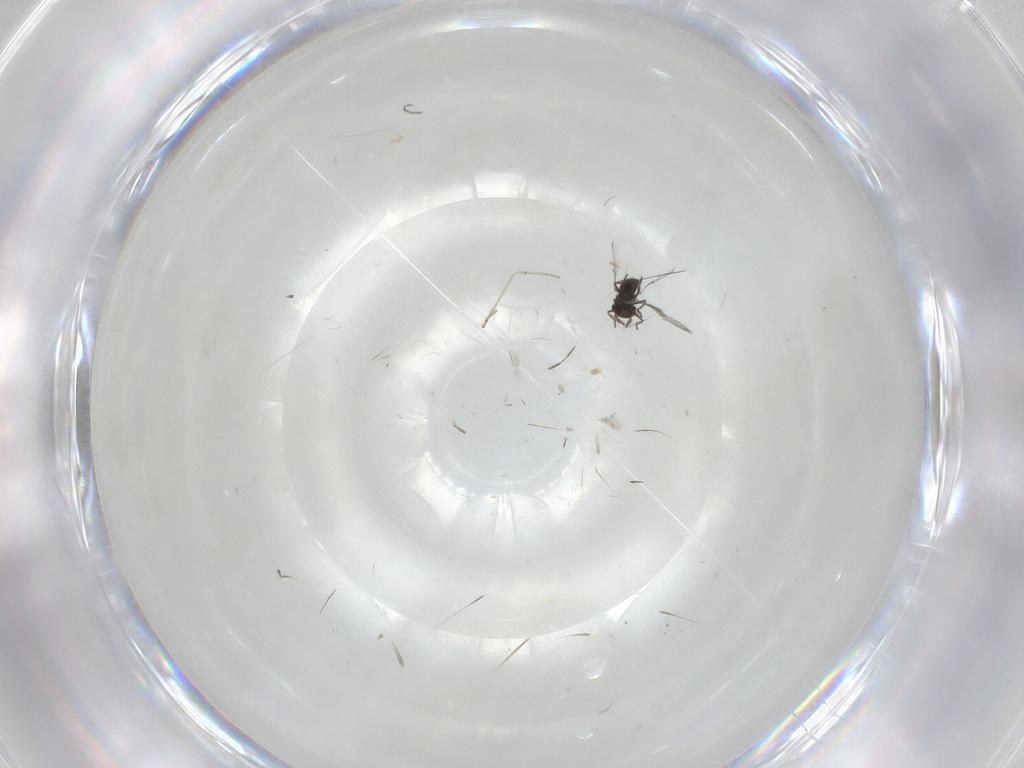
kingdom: Animalia
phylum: Arthropoda
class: Insecta
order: Hymenoptera
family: Trichogrammatidae
